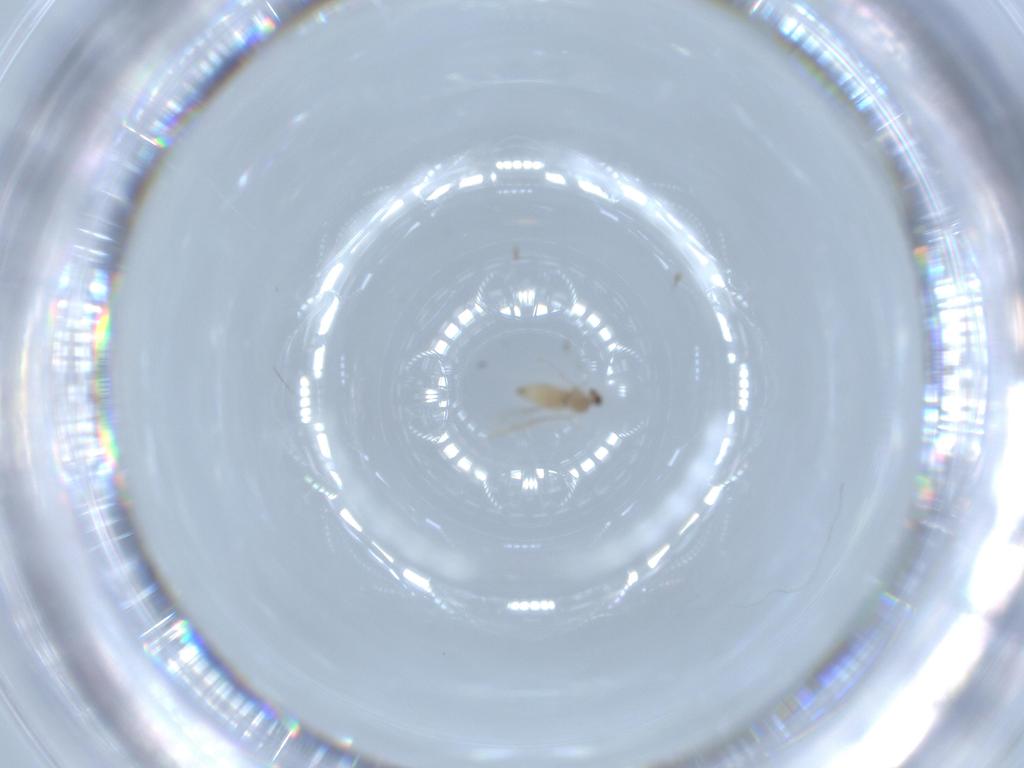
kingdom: Animalia
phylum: Arthropoda
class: Insecta
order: Diptera
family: Cecidomyiidae
